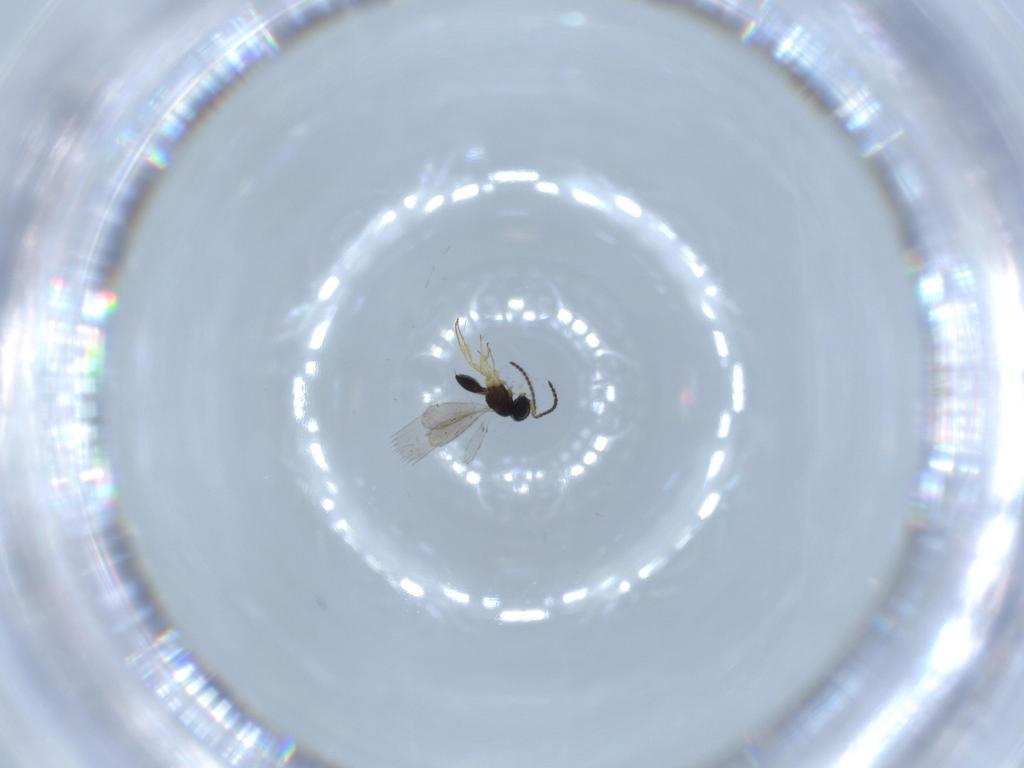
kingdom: Animalia
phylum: Arthropoda
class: Insecta
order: Hymenoptera
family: Scelionidae
